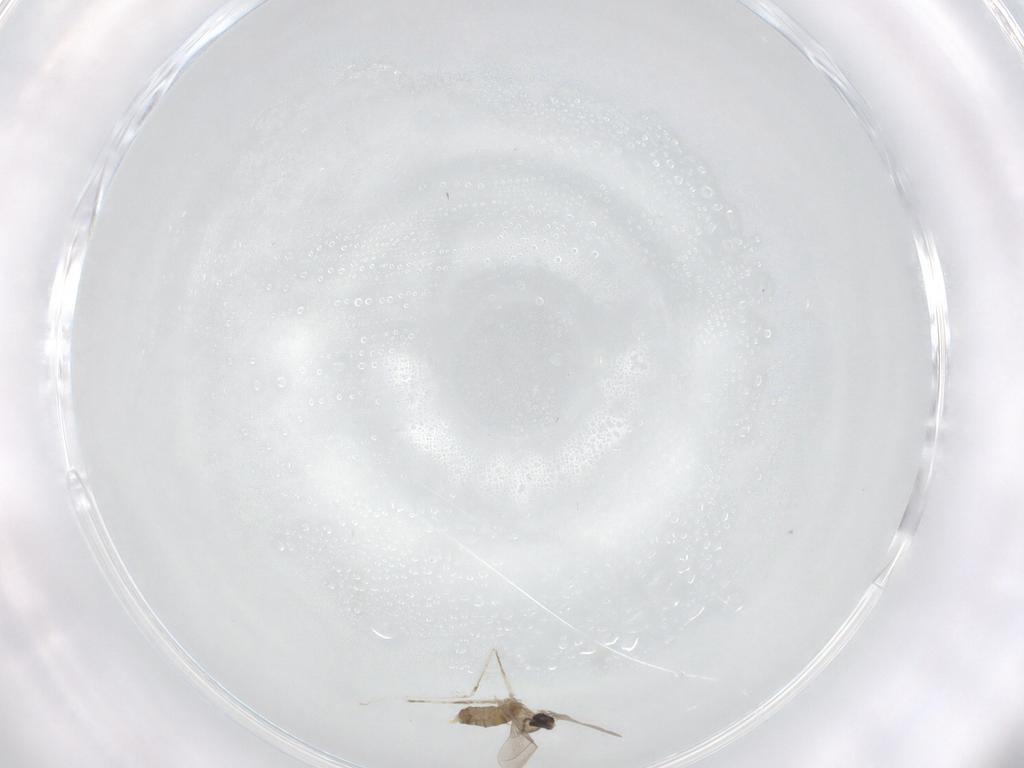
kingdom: Animalia
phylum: Arthropoda
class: Insecta
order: Diptera
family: Cecidomyiidae
